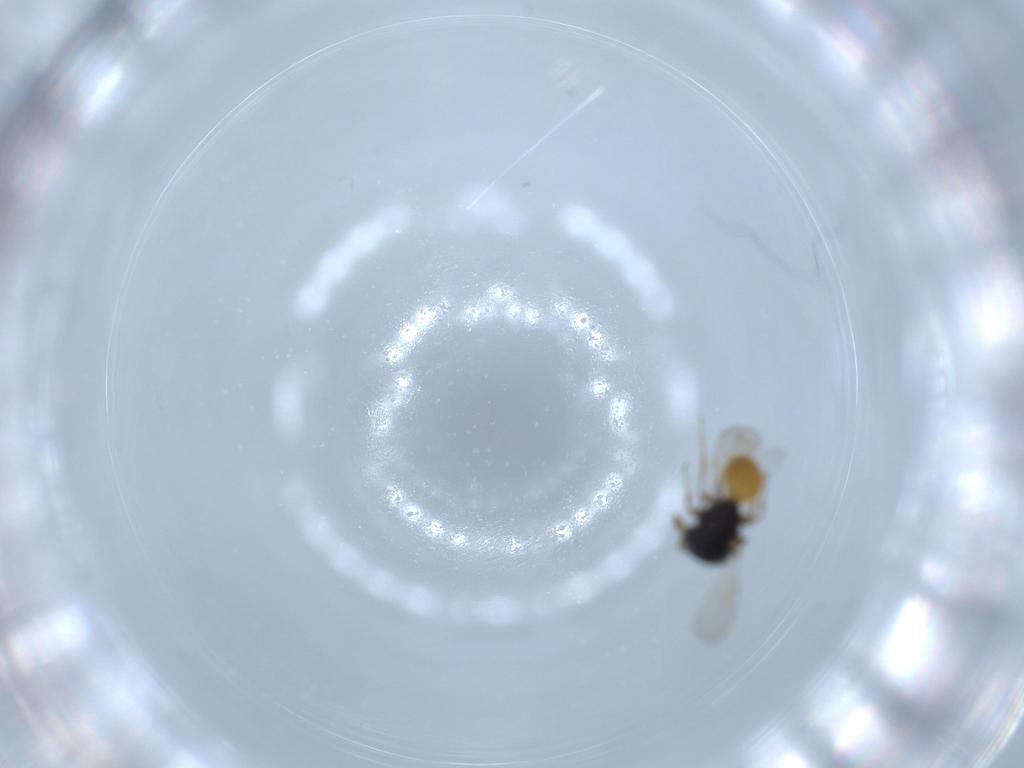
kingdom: Animalia
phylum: Arthropoda
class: Insecta
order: Hymenoptera
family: Scelionidae
